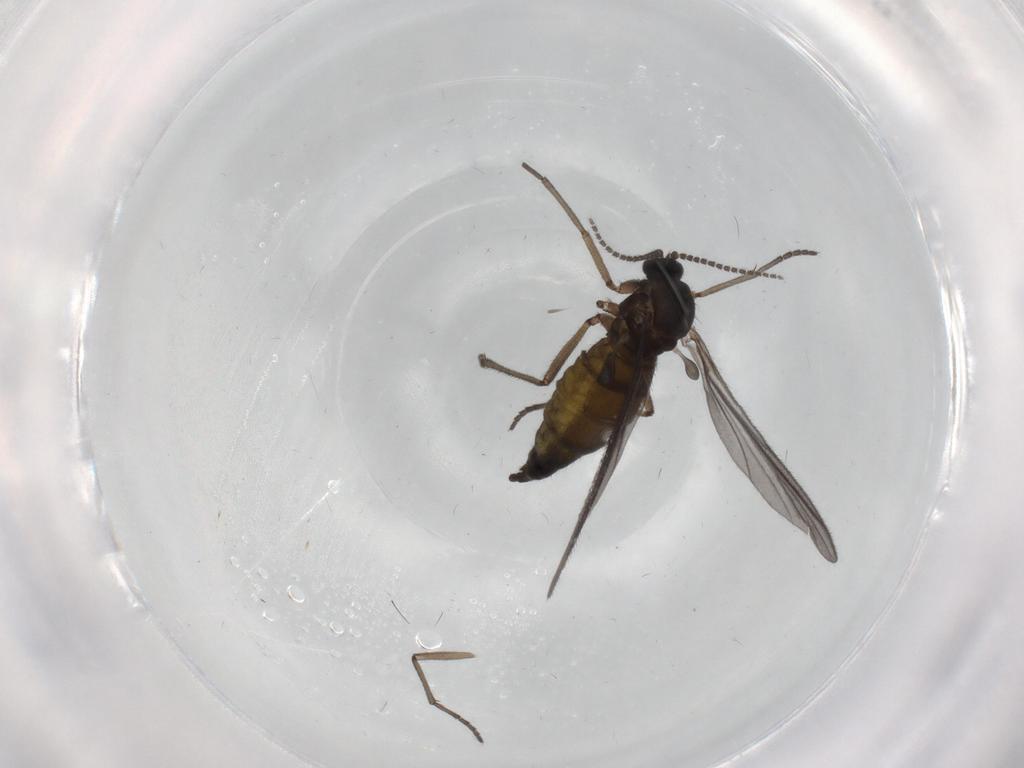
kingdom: Animalia
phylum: Arthropoda
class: Insecta
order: Diptera
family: Sciaridae
